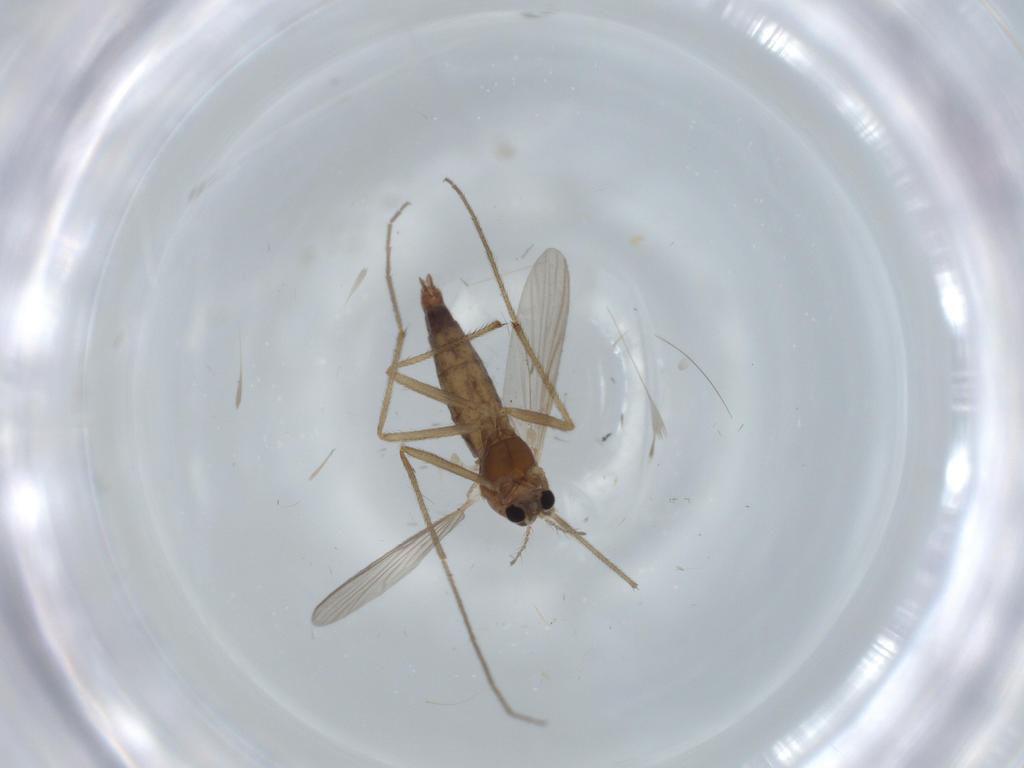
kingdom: Animalia
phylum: Arthropoda
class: Insecta
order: Diptera
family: Chironomidae
